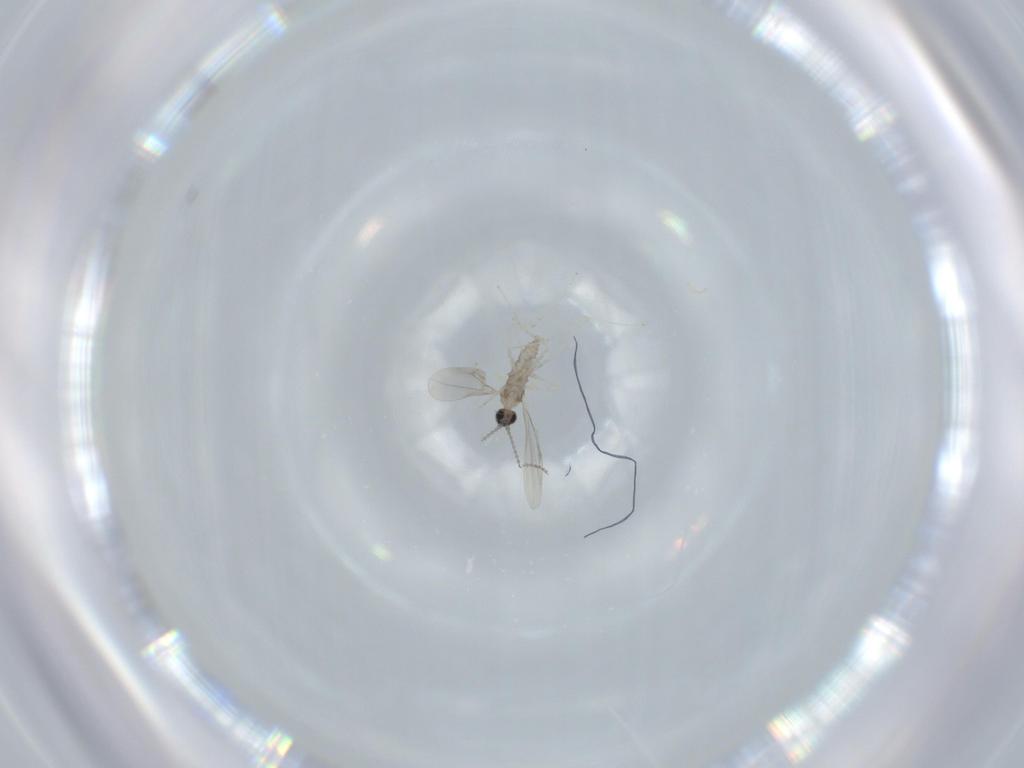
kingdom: Animalia
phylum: Arthropoda
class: Insecta
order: Diptera
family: Cecidomyiidae
